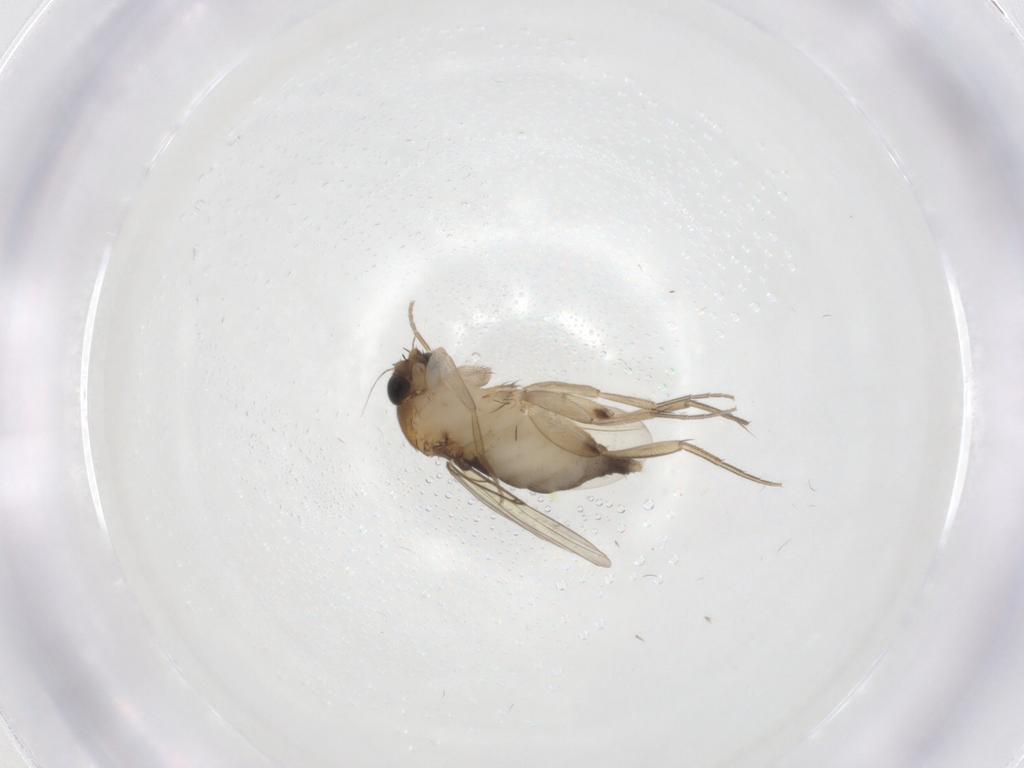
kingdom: Animalia
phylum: Arthropoda
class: Insecta
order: Diptera
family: Phoridae
